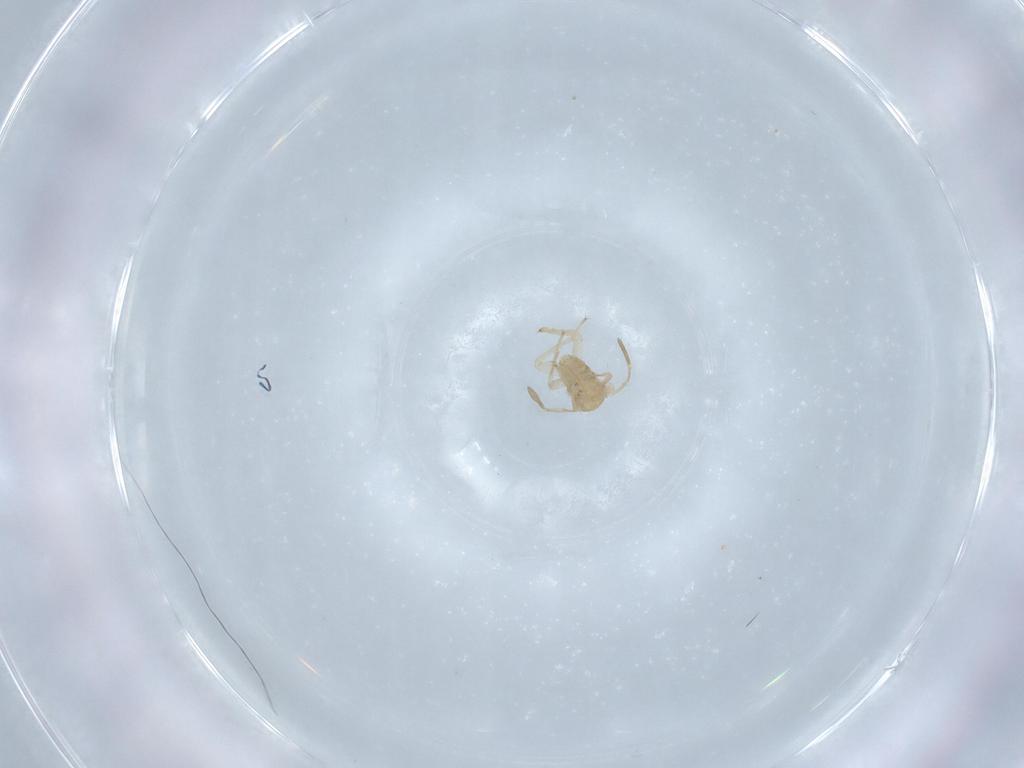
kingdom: Animalia
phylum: Arthropoda
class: Insecta
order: Hemiptera
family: Miridae
